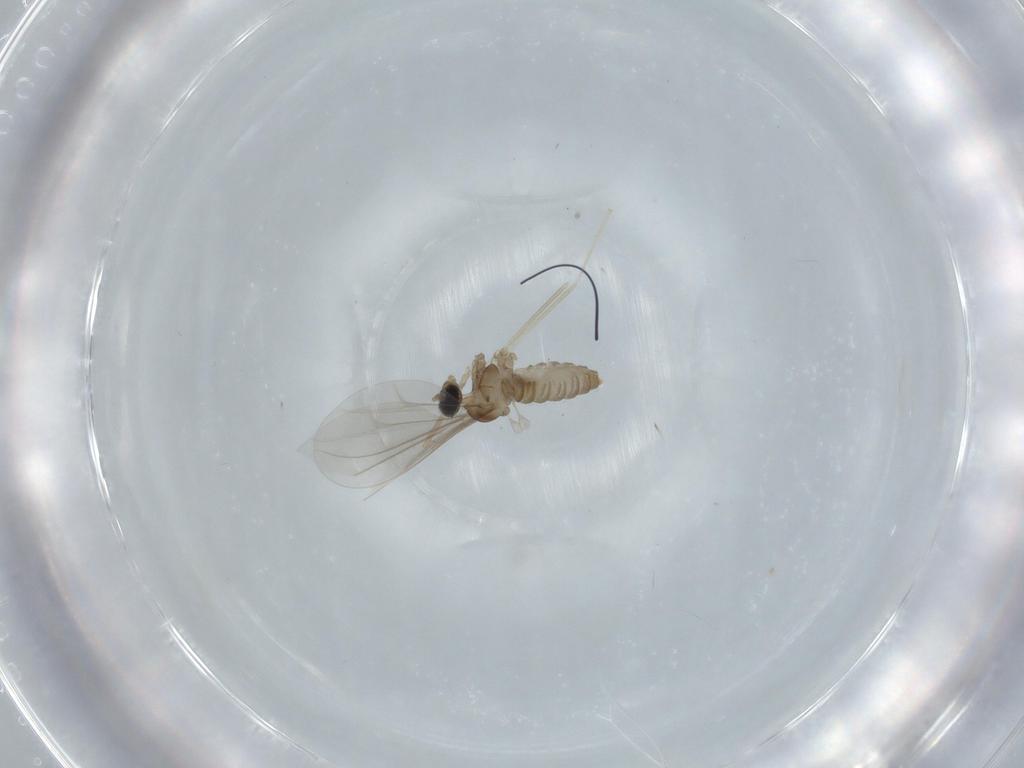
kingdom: Animalia
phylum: Arthropoda
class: Insecta
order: Diptera
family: Cecidomyiidae
